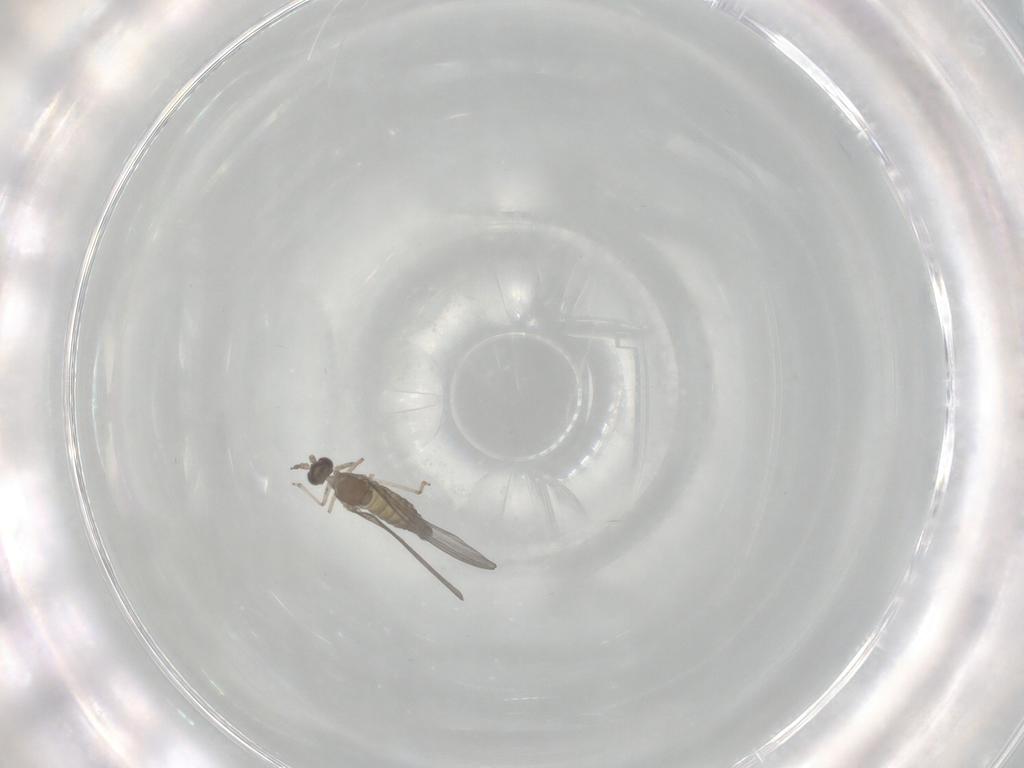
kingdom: Animalia
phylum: Arthropoda
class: Insecta
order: Diptera
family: Cecidomyiidae
